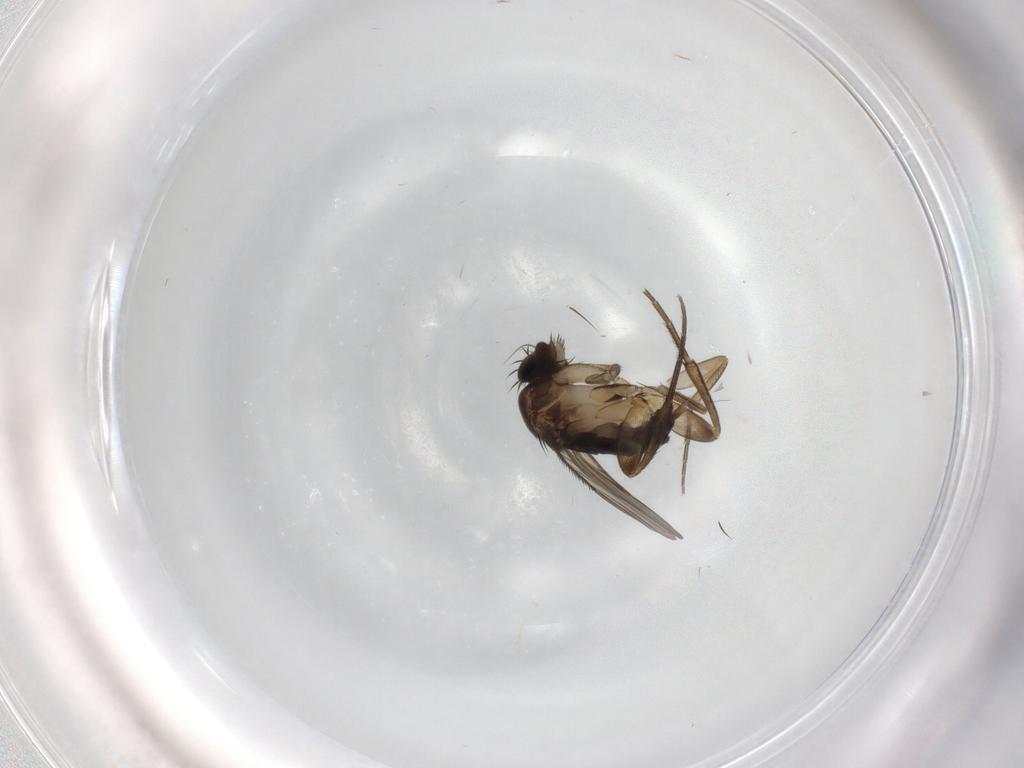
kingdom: Animalia
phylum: Arthropoda
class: Insecta
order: Diptera
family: Phoridae
